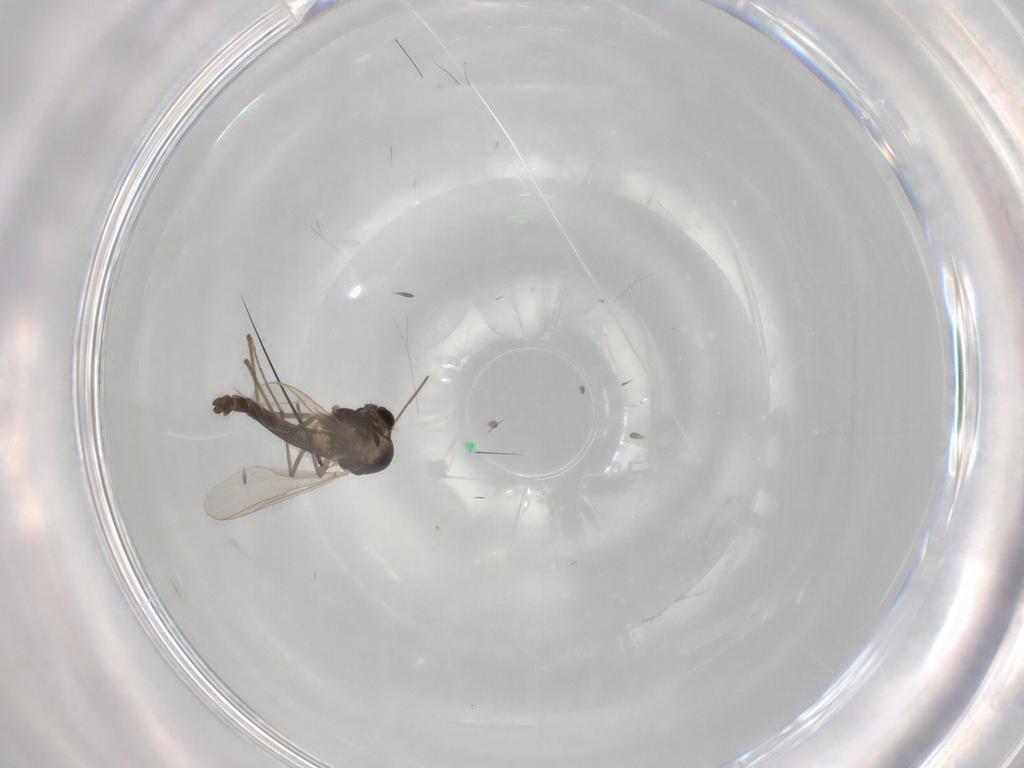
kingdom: Animalia
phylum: Arthropoda
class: Insecta
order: Diptera
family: Chironomidae
